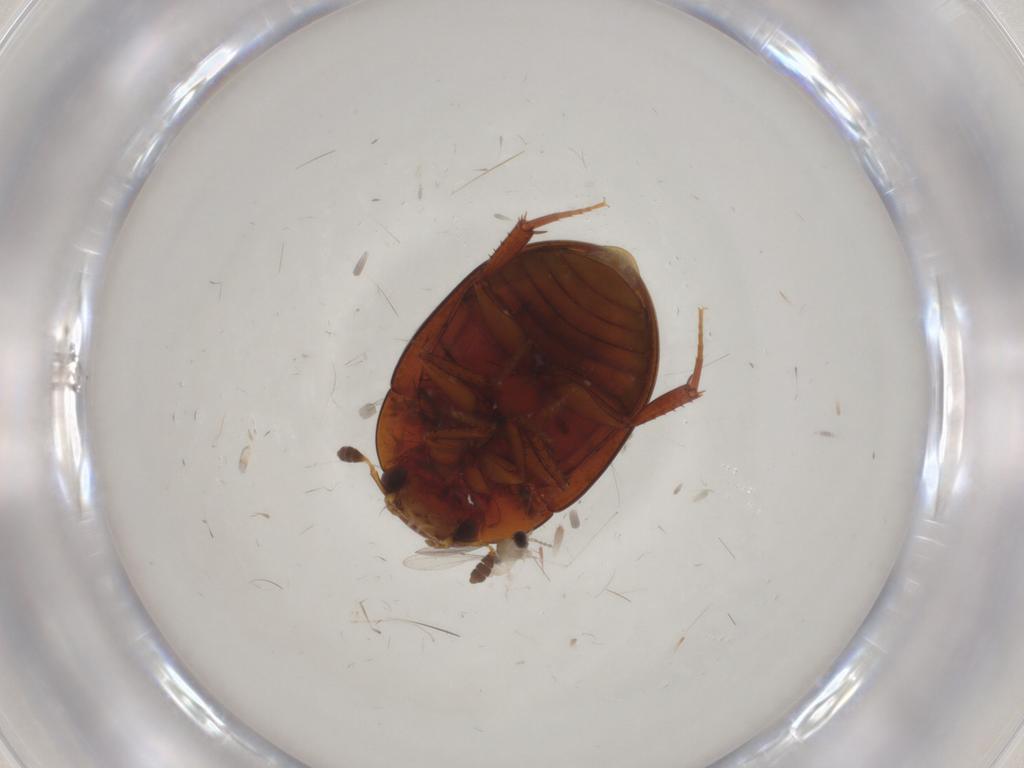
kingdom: Animalia
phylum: Arthropoda
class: Insecta
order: Coleoptera
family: Hydrophilidae
